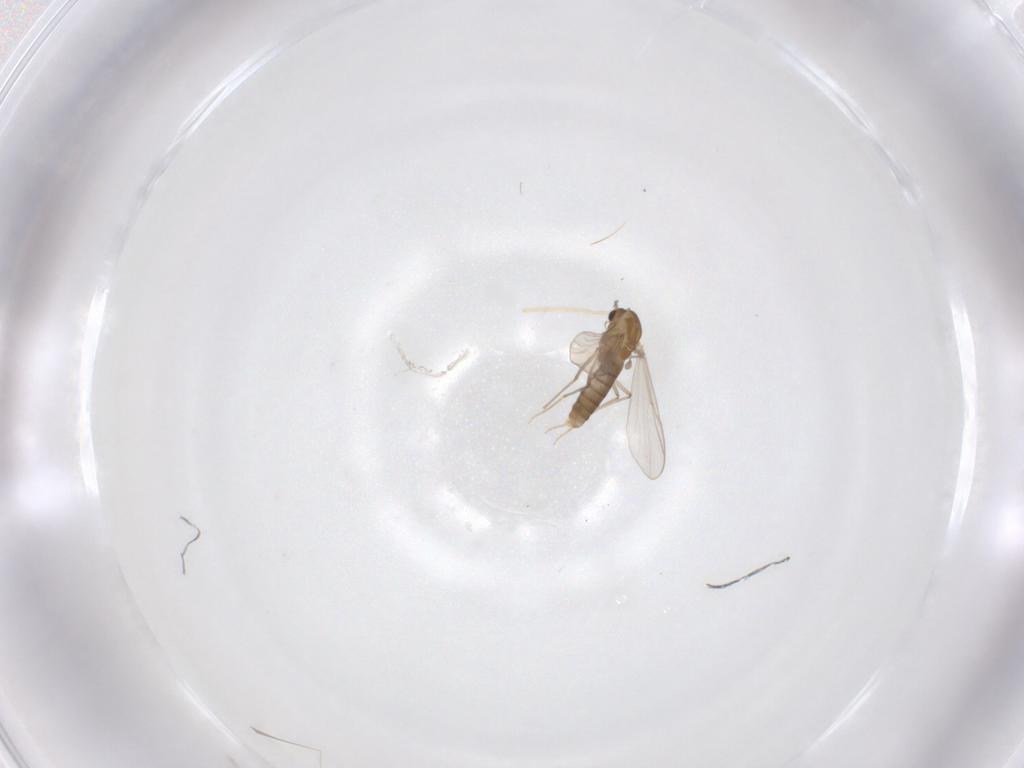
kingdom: Animalia
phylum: Arthropoda
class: Insecta
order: Diptera
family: Chironomidae
